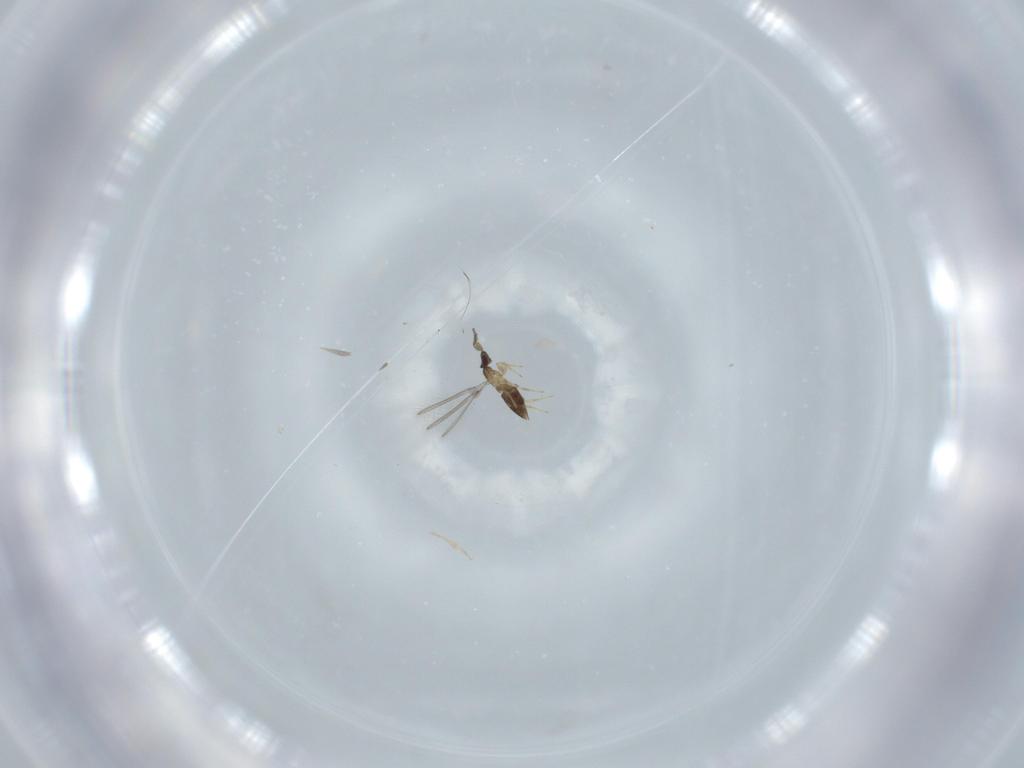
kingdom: Animalia
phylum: Arthropoda
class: Insecta
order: Hymenoptera
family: Mymaridae
